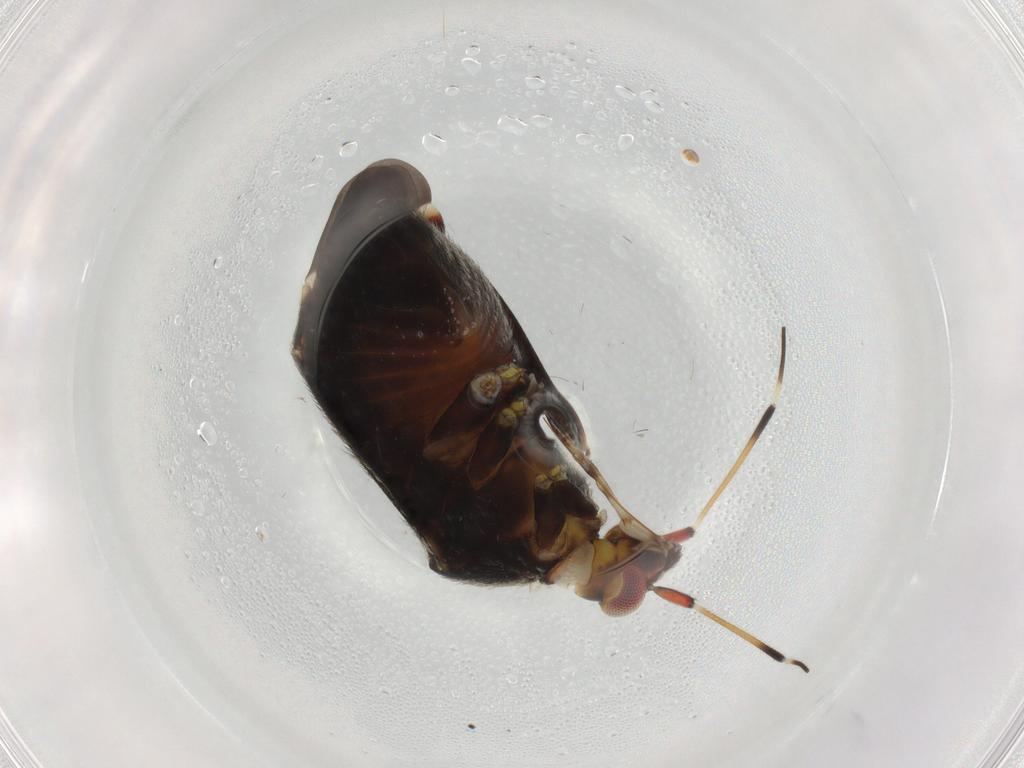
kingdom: Animalia
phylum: Arthropoda
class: Insecta
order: Hemiptera
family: Miridae
